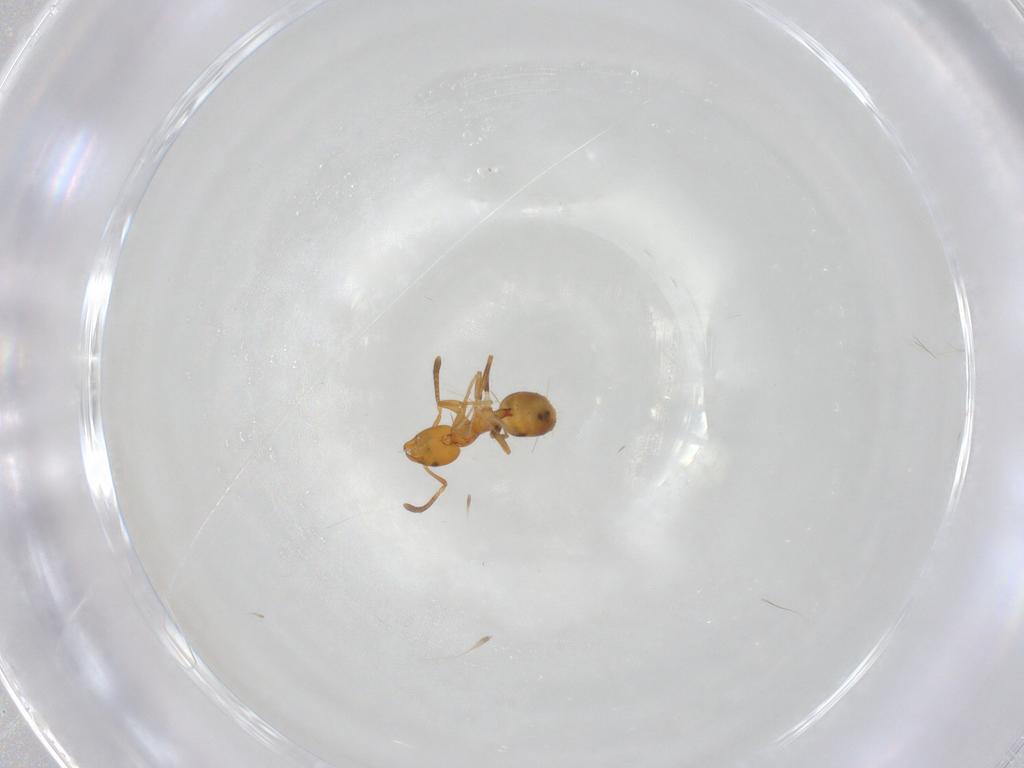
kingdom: Animalia
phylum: Arthropoda
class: Insecta
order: Hymenoptera
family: Formicidae
